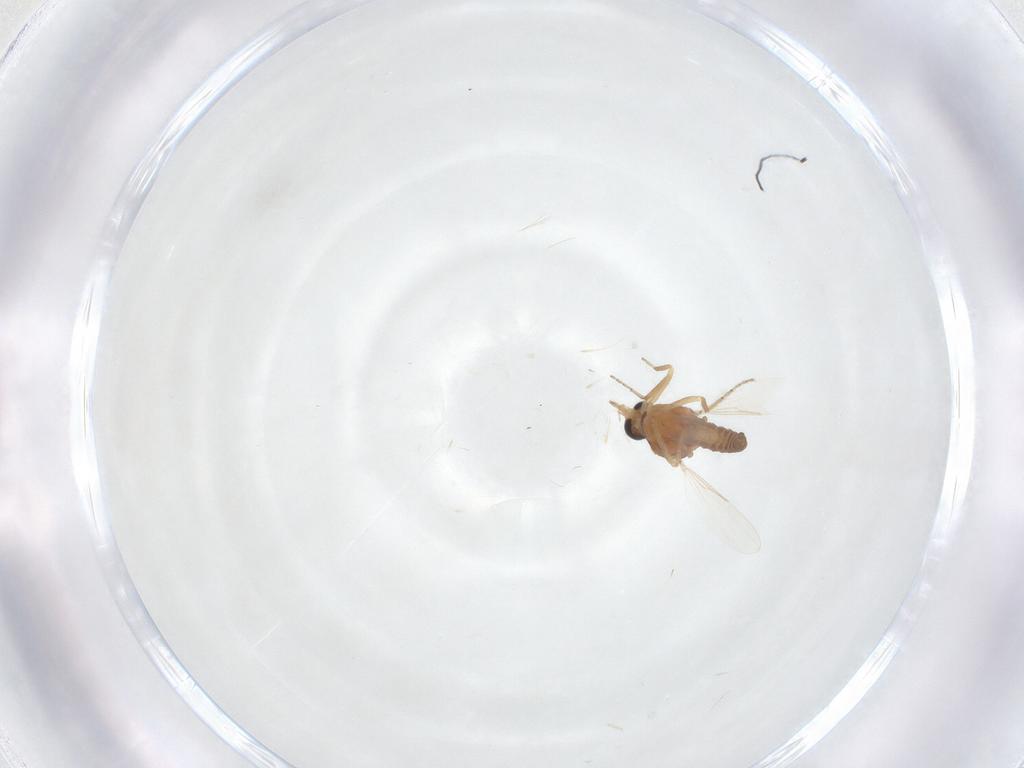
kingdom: Animalia
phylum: Arthropoda
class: Insecta
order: Diptera
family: Ceratopogonidae
